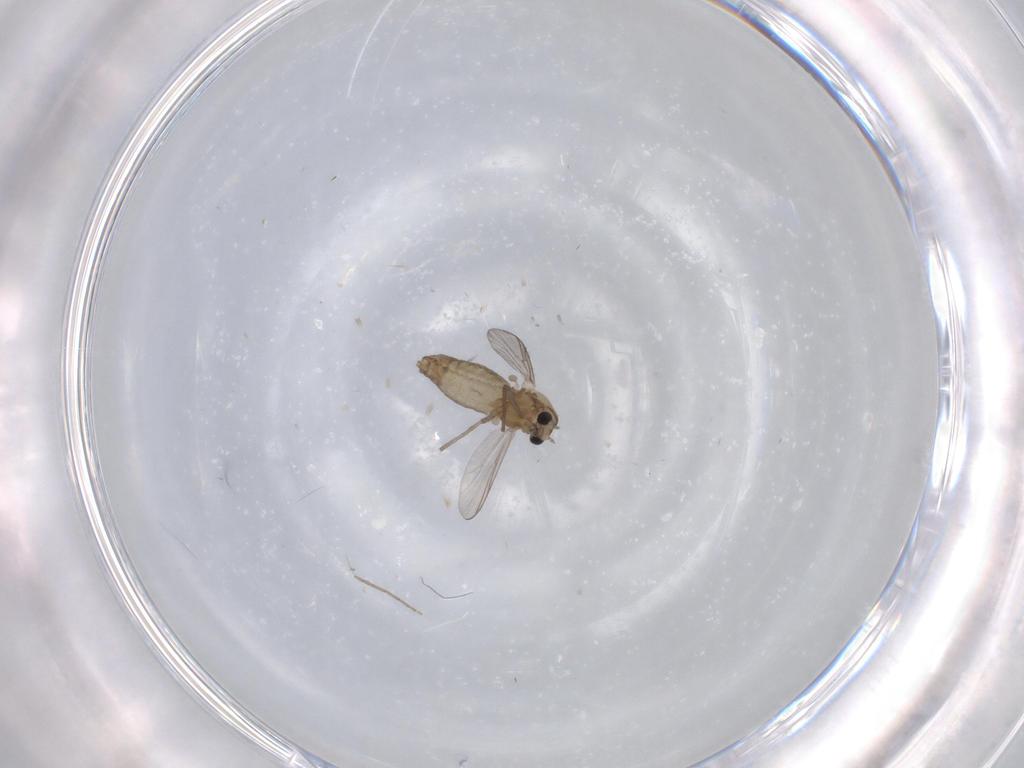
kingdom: Animalia
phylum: Arthropoda
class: Insecta
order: Diptera
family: Chironomidae
